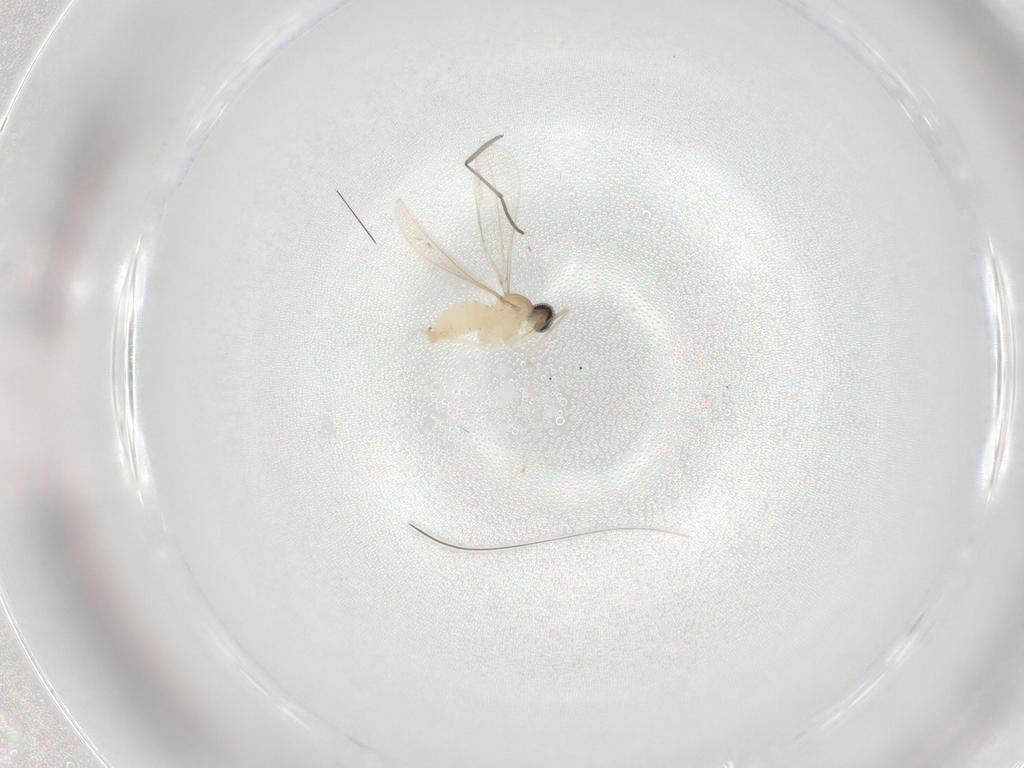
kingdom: Animalia
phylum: Arthropoda
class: Insecta
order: Diptera
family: Sciaridae
